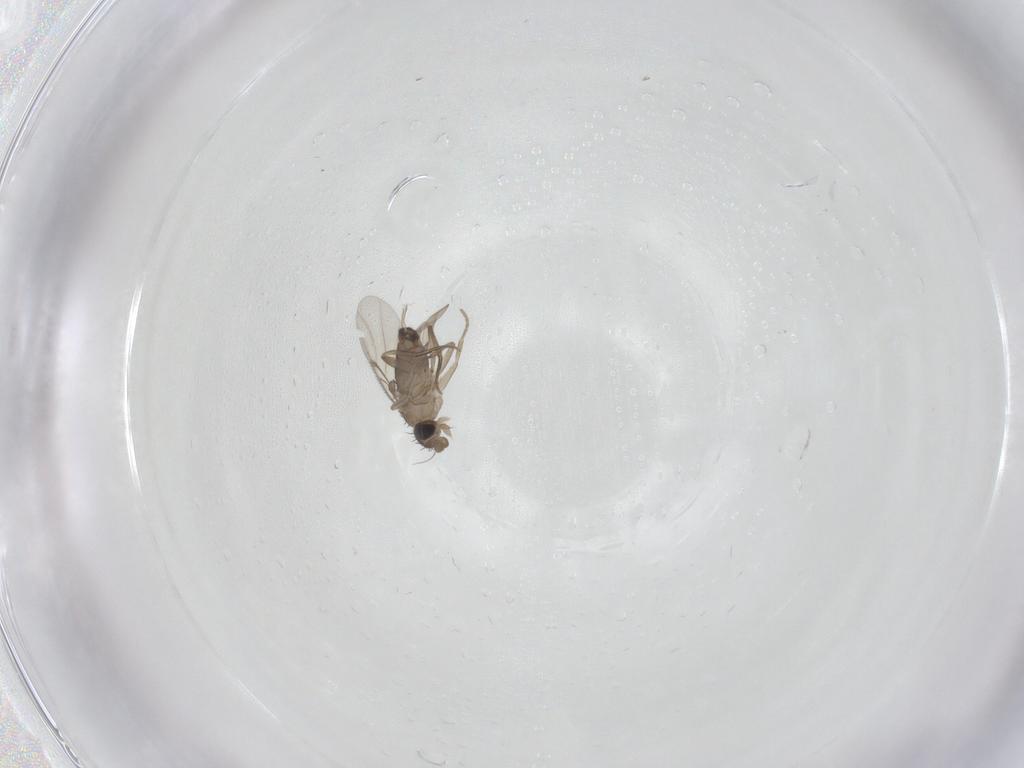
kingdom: Animalia
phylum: Arthropoda
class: Insecta
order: Diptera
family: Phoridae
